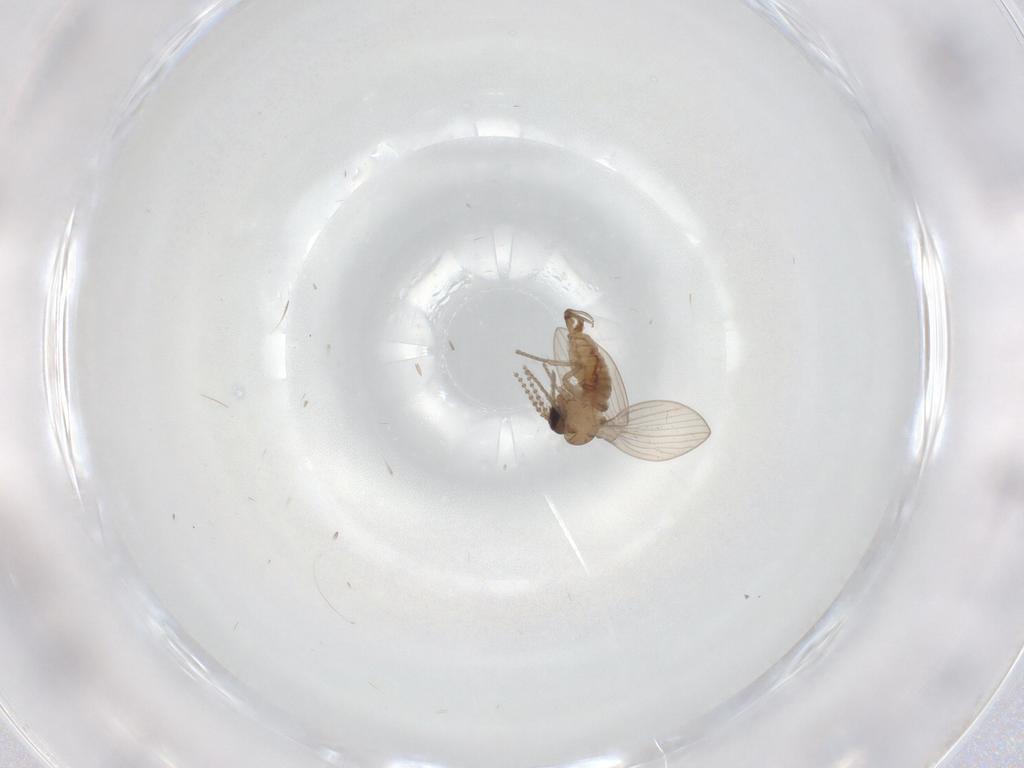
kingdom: Animalia
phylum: Arthropoda
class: Insecta
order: Diptera
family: Psychodidae
